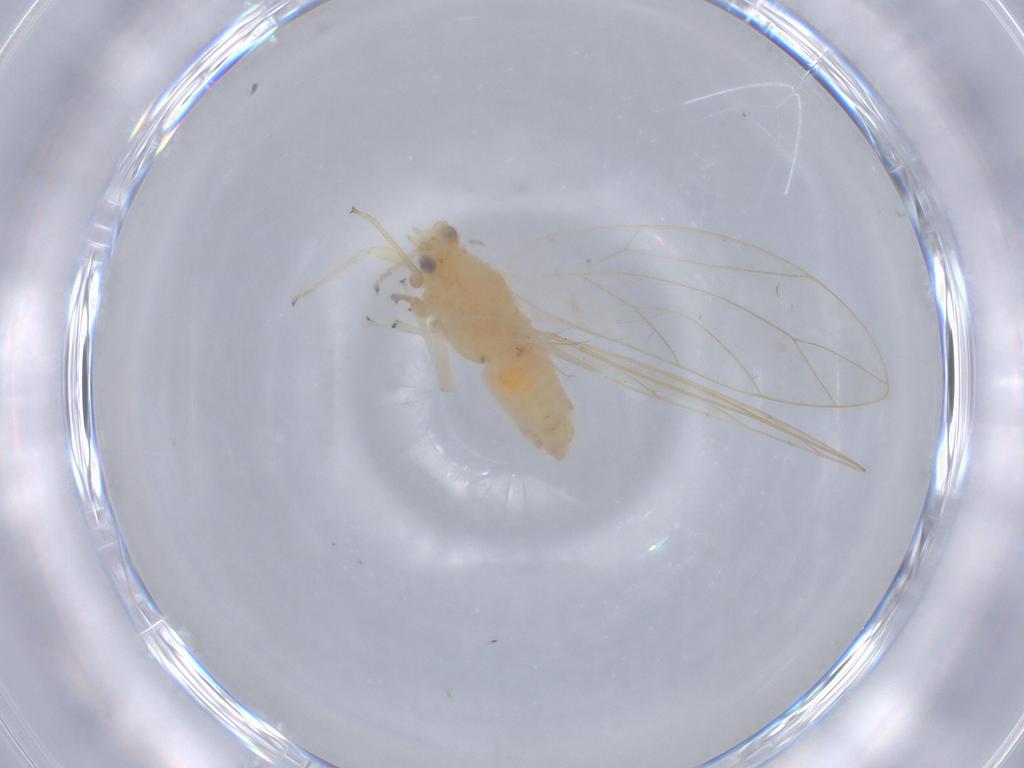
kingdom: Animalia
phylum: Arthropoda
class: Insecta
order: Hemiptera
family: Triozidae
